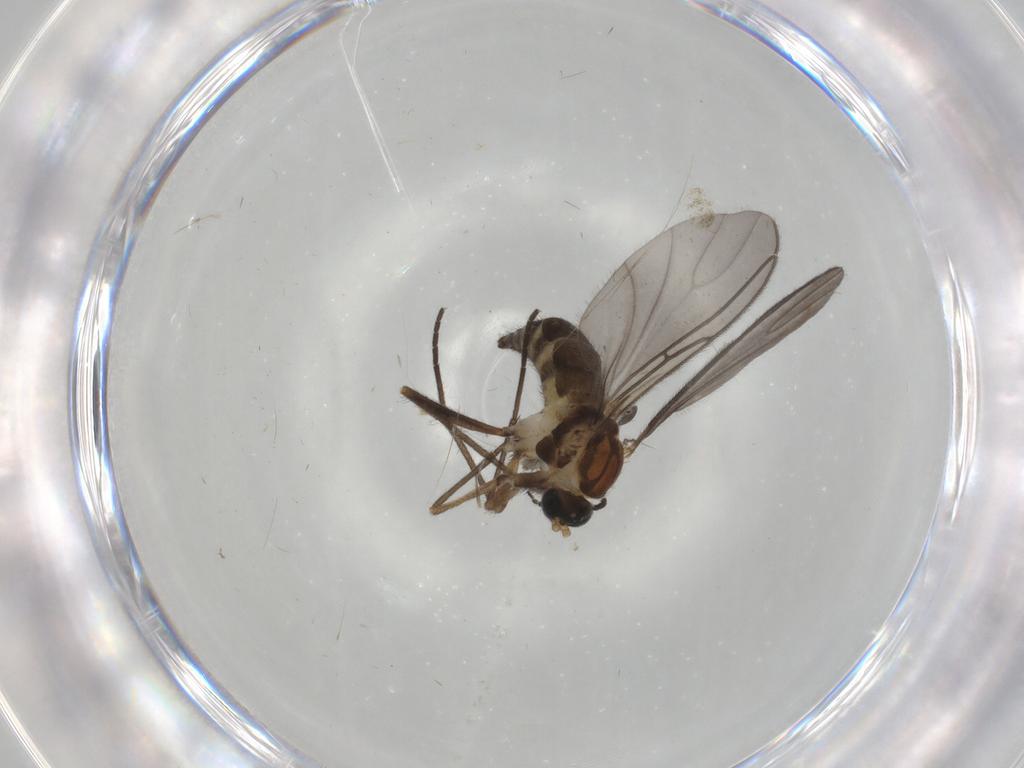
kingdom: Animalia
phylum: Arthropoda
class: Insecta
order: Diptera
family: Sciaridae
